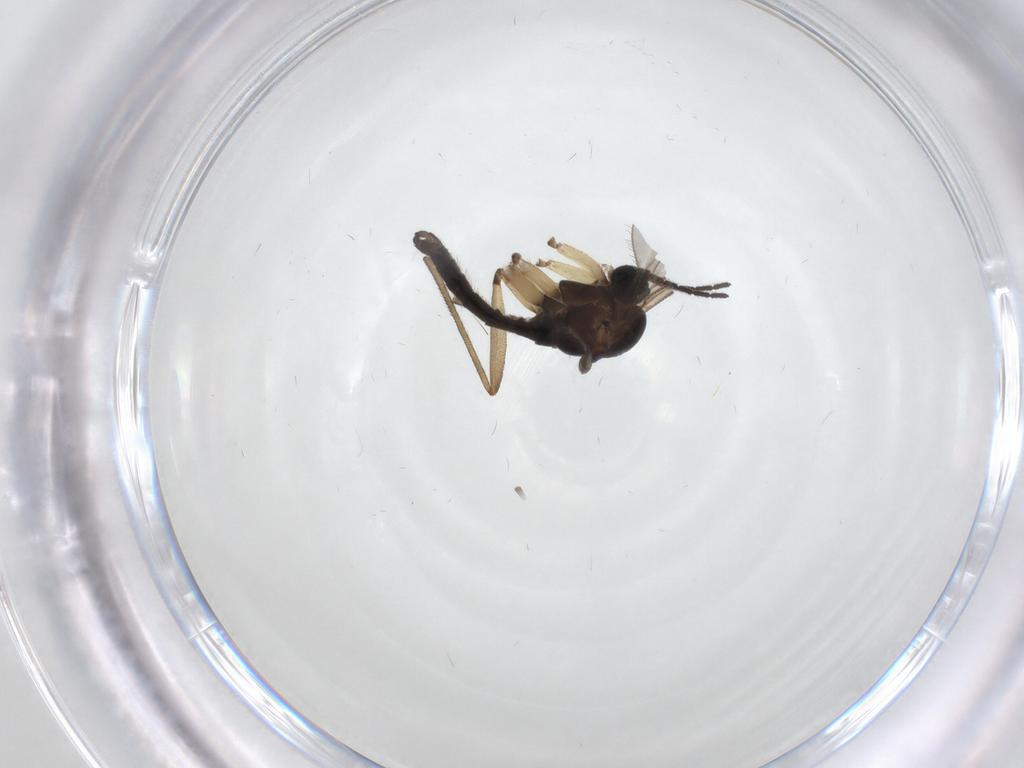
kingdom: Animalia
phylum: Arthropoda
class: Insecta
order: Diptera
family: Sciaridae
